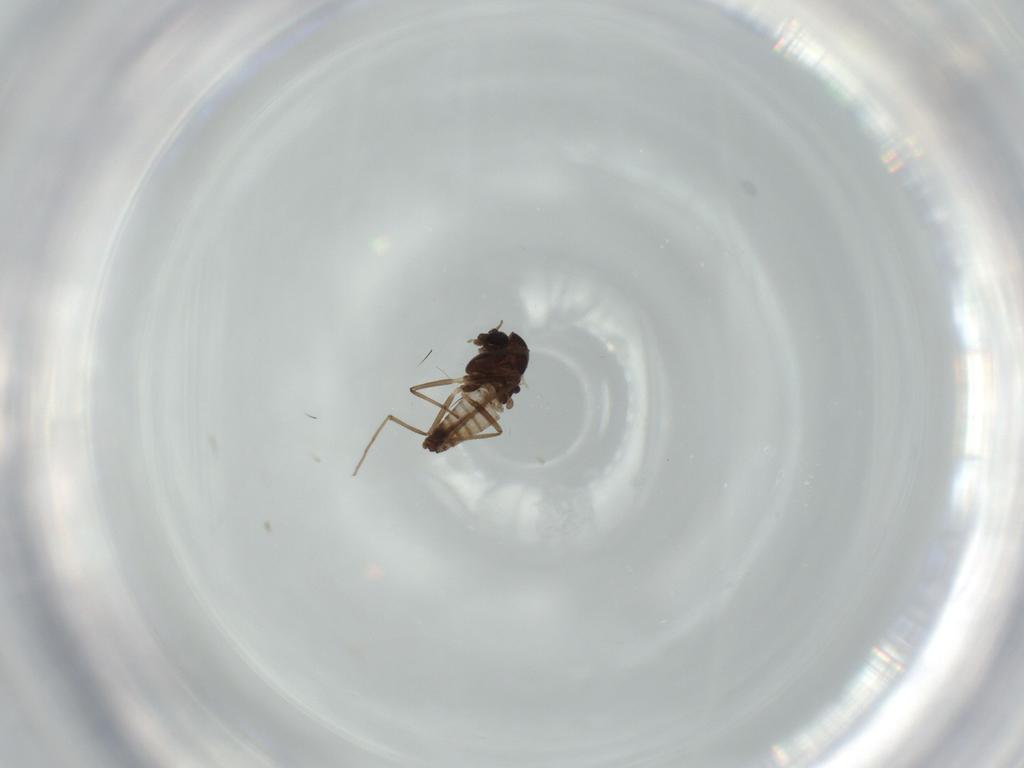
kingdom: Animalia
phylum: Arthropoda
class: Insecta
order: Diptera
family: Chironomidae
